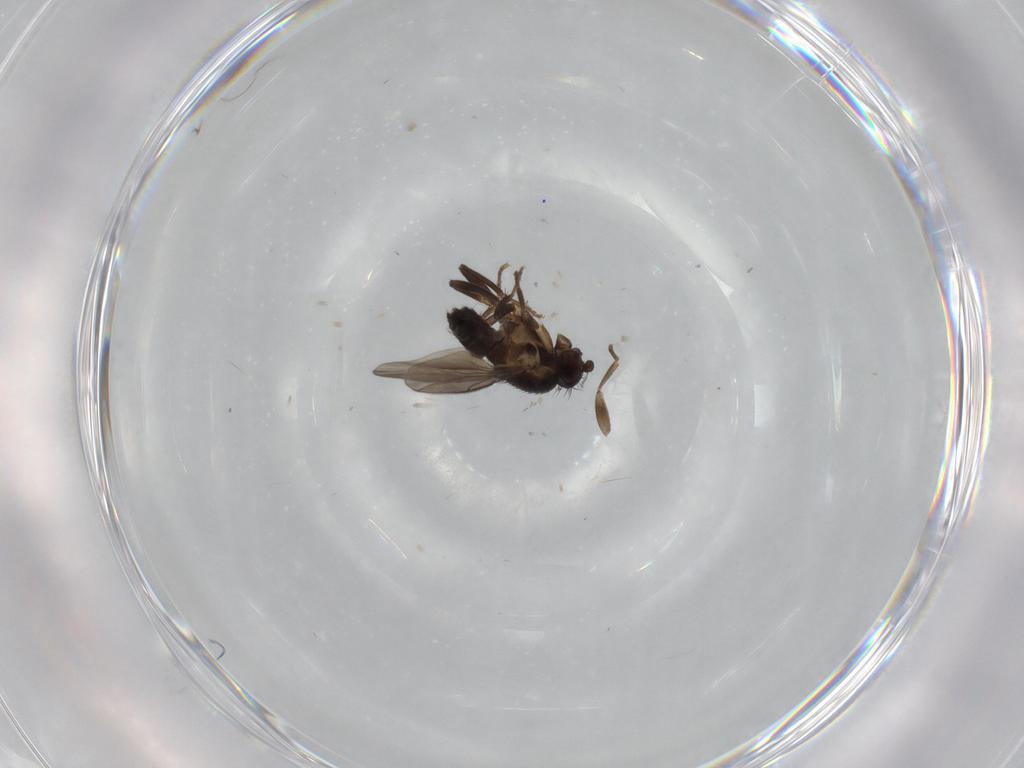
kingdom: Animalia
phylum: Arthropoda
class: Insecta
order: Diptera
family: Sphaeroceridae
